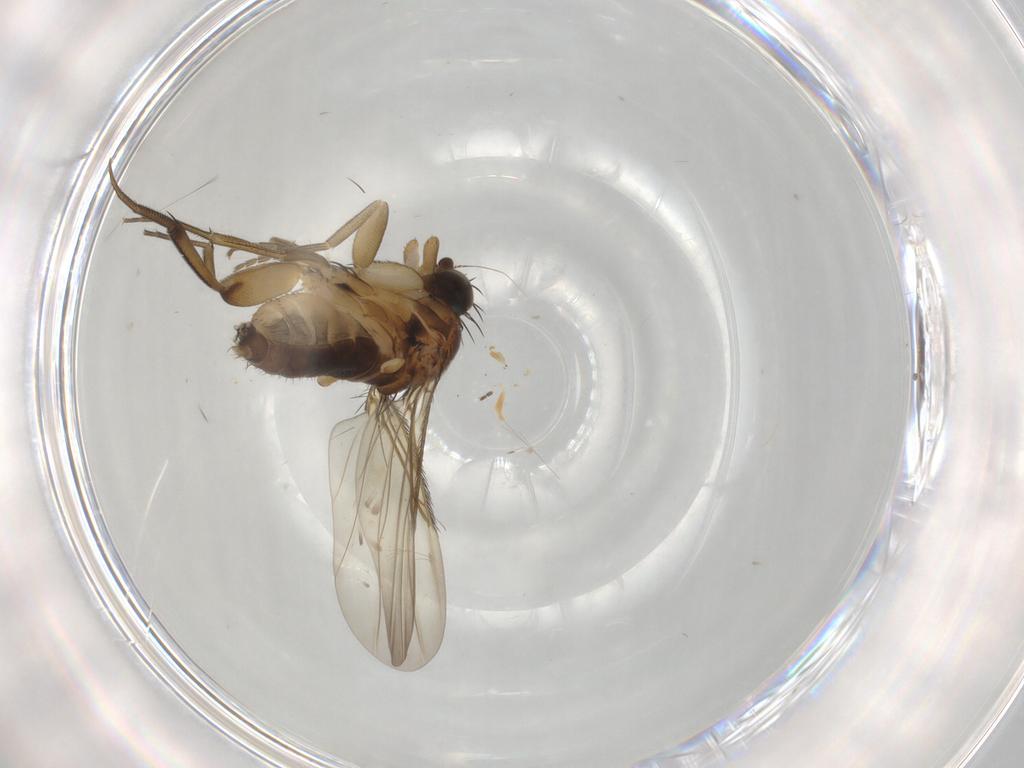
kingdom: Animalia
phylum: Arthropoda
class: Insecta
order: Diptera
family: Phoridae
